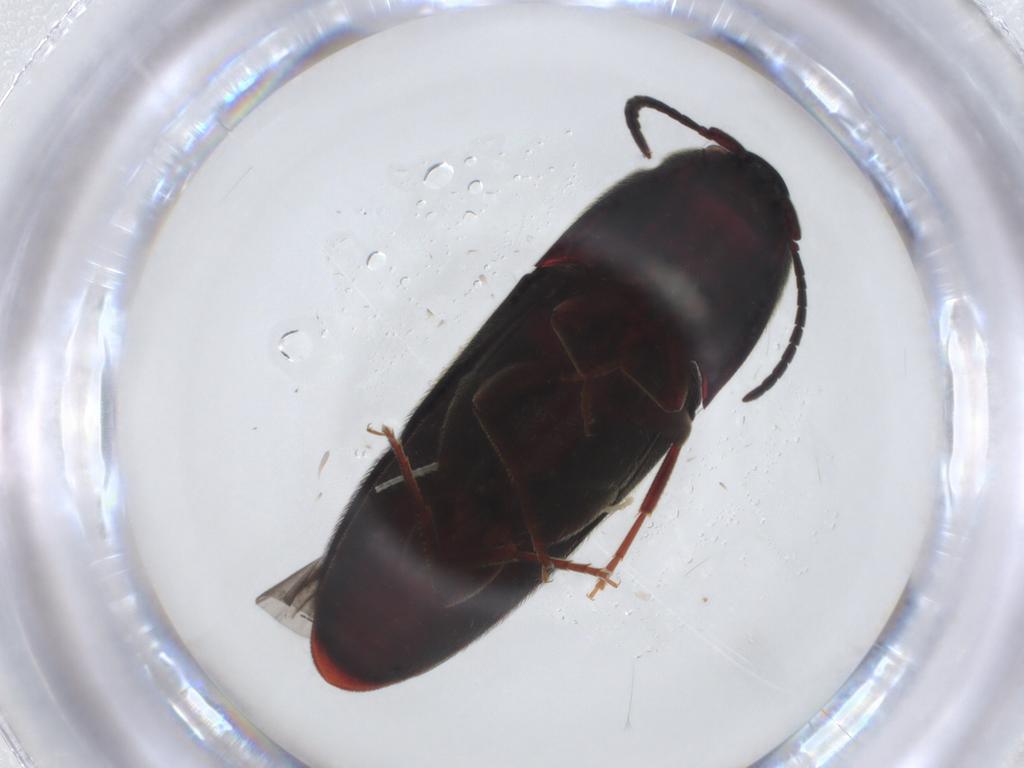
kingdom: Animalia
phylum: Arthropoda
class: Insecta
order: Coleoptera
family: Eucnemidae
